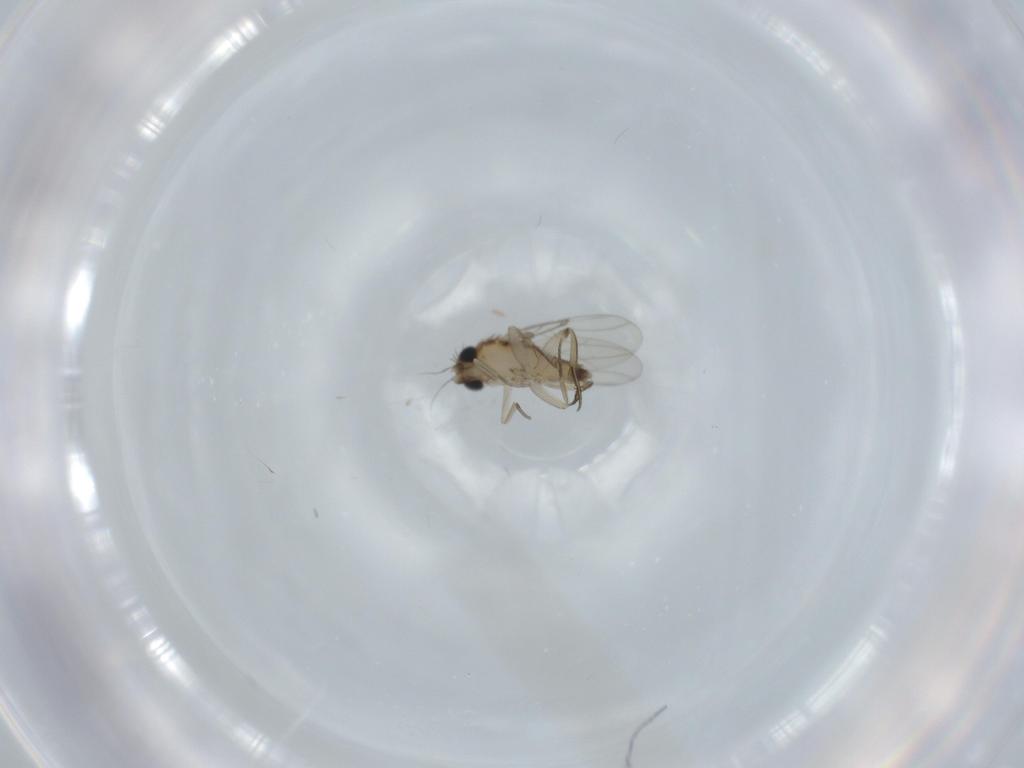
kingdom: Animalia
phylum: Arthropoda
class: Insecta
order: Diptera
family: Phoridae
